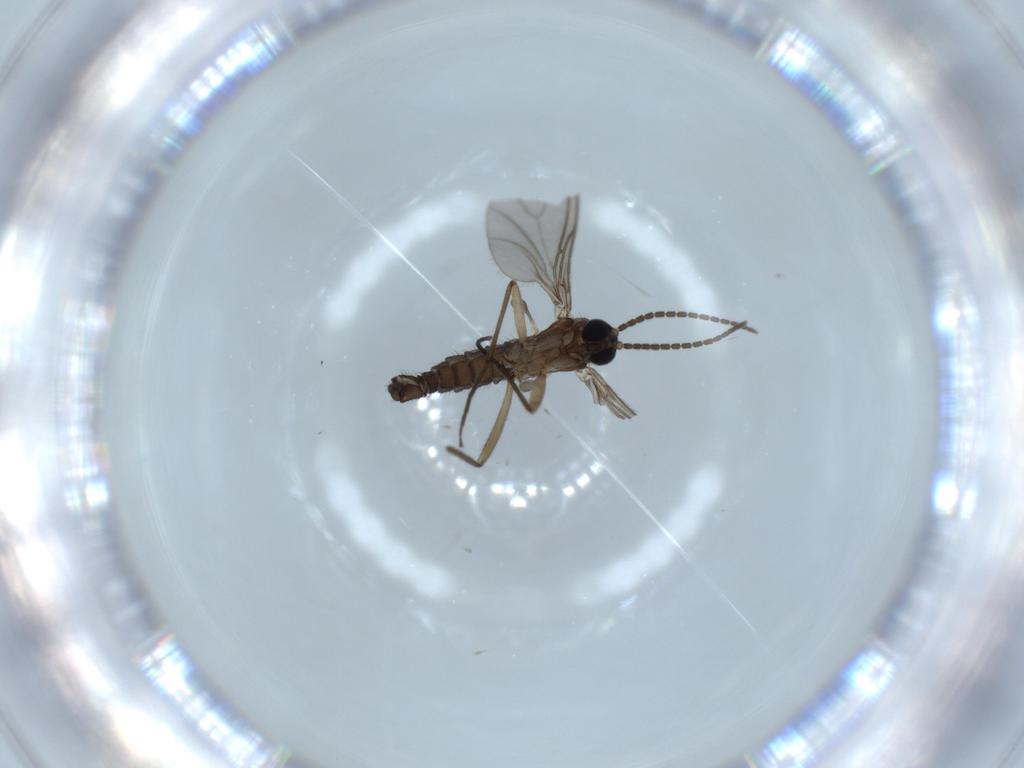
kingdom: Animalia
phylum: Arthropoda
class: Insecta
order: Diptera
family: Sciaridae
